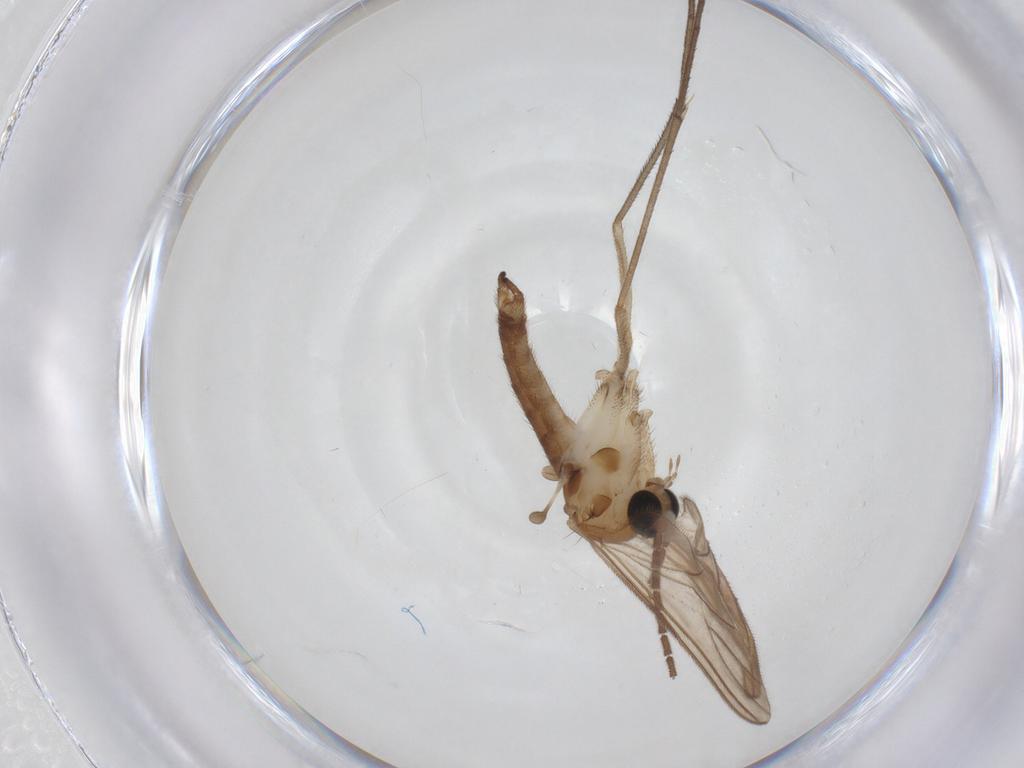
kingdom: Animalia
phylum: Arthropoda
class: Insecta
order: Diptera
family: Sciaridae
